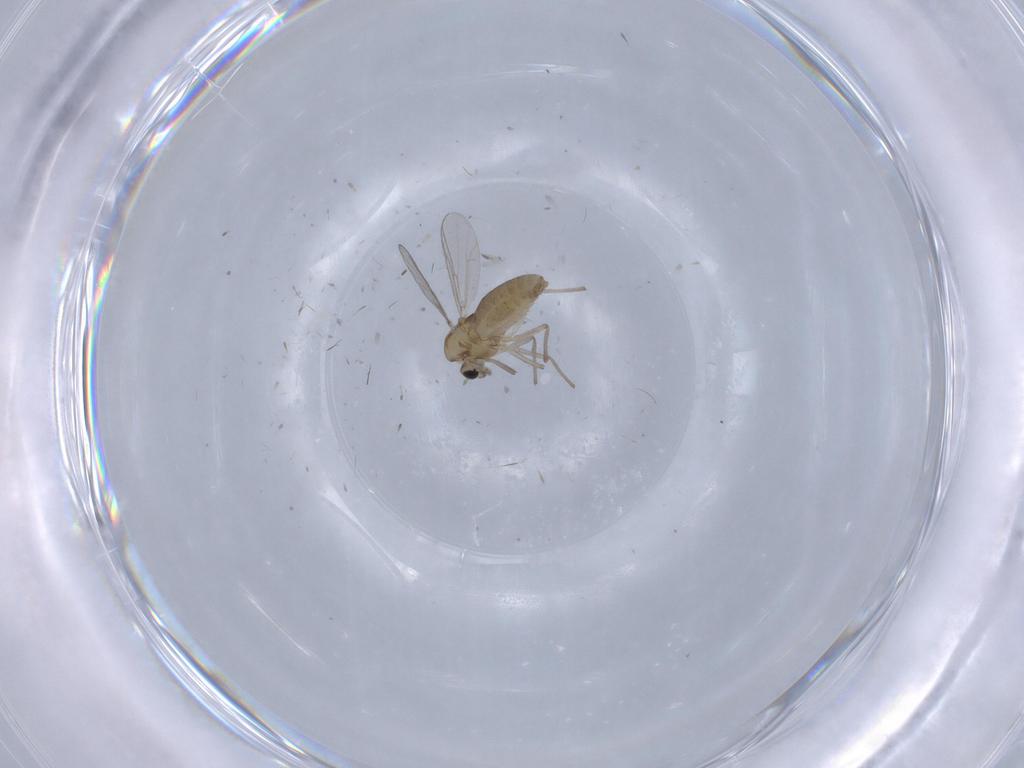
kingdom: Animalia
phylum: Arthropoda
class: Insecta
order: Diptera
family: Chironomidae
